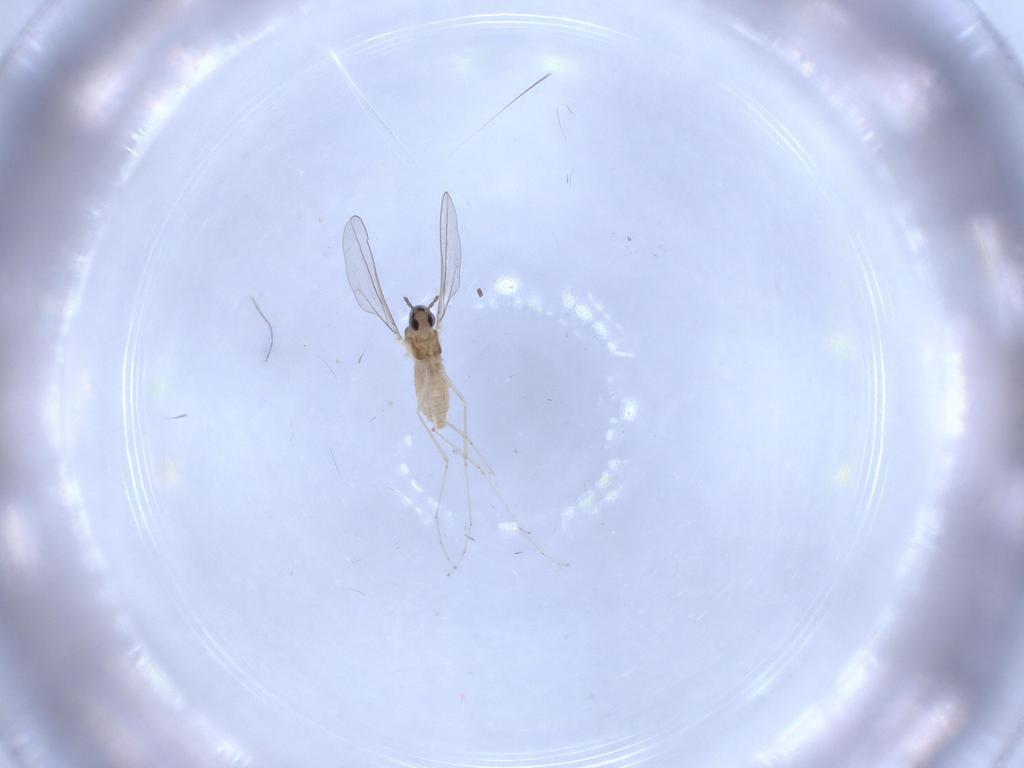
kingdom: Animalia
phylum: Arthropoda
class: Insecta
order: Diptera
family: Cecidomyiidae
